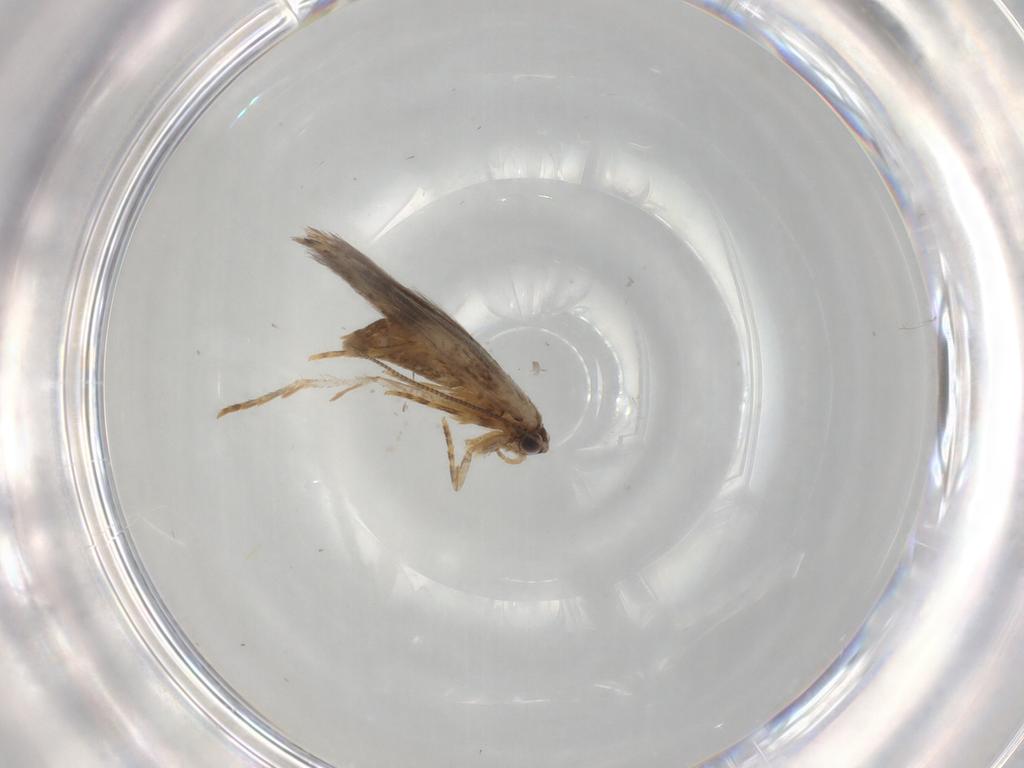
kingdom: Animalia
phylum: Arthropoda
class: Insecta
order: Lepidoptera
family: Tineidae
